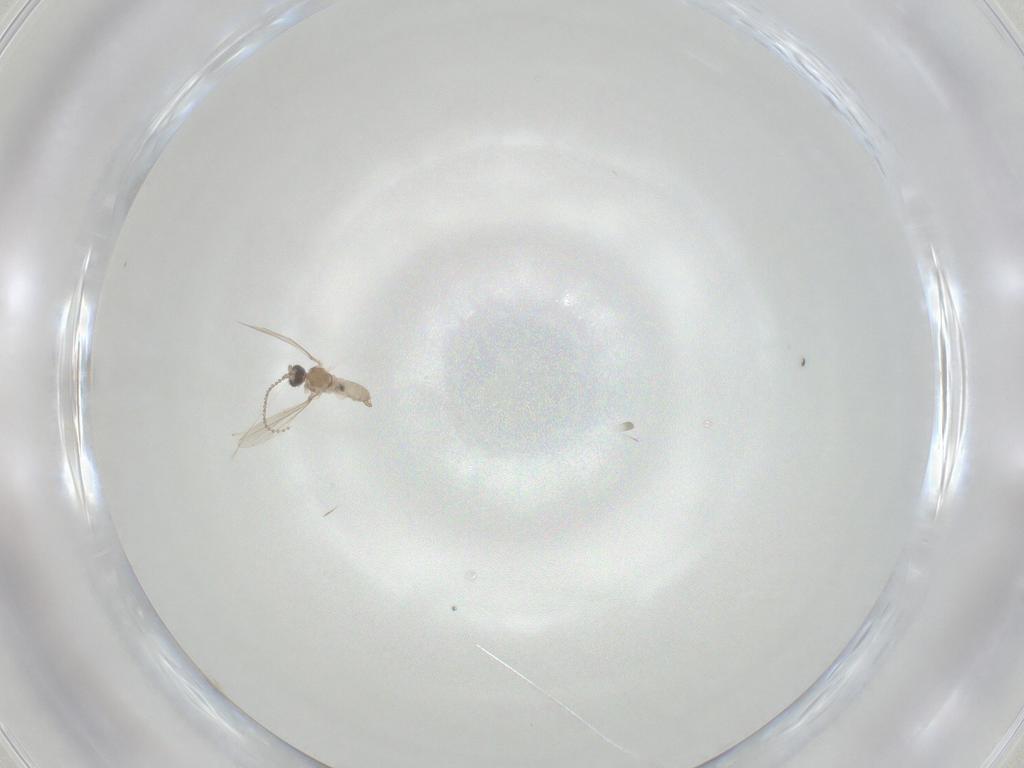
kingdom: Animalia
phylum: Arthropoda
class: Insecta
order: Diptera
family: Cecidomyiidae
